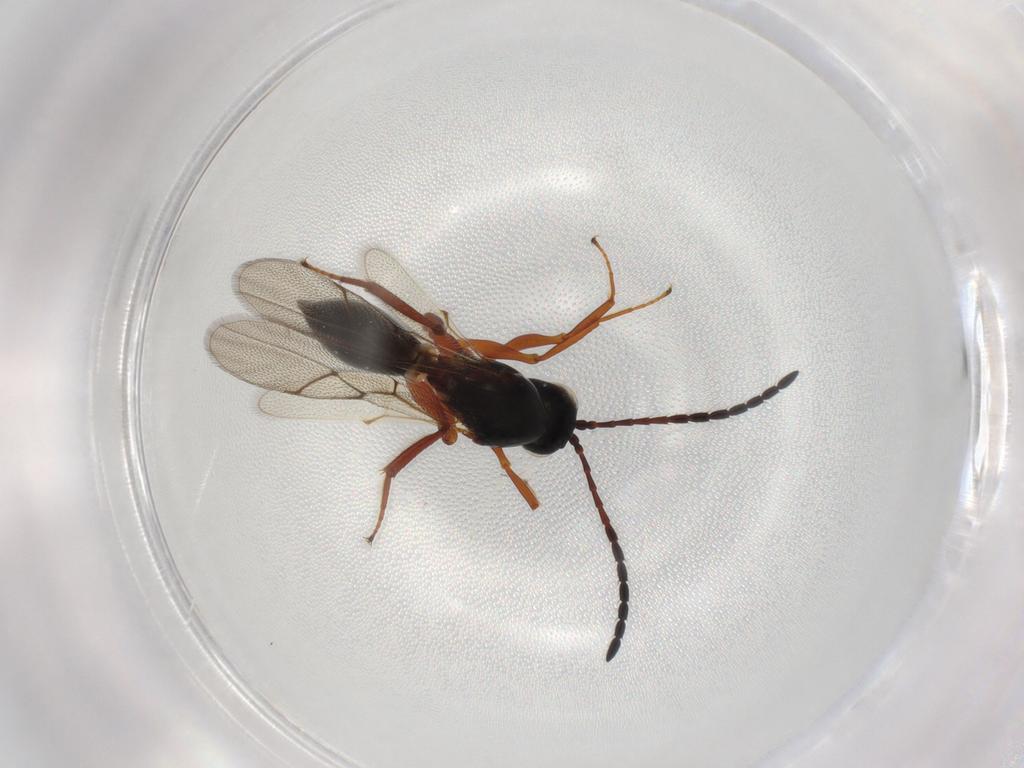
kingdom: Animalia
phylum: Arthropoda
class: Insecta
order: Hymenoptera
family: Figitidae
